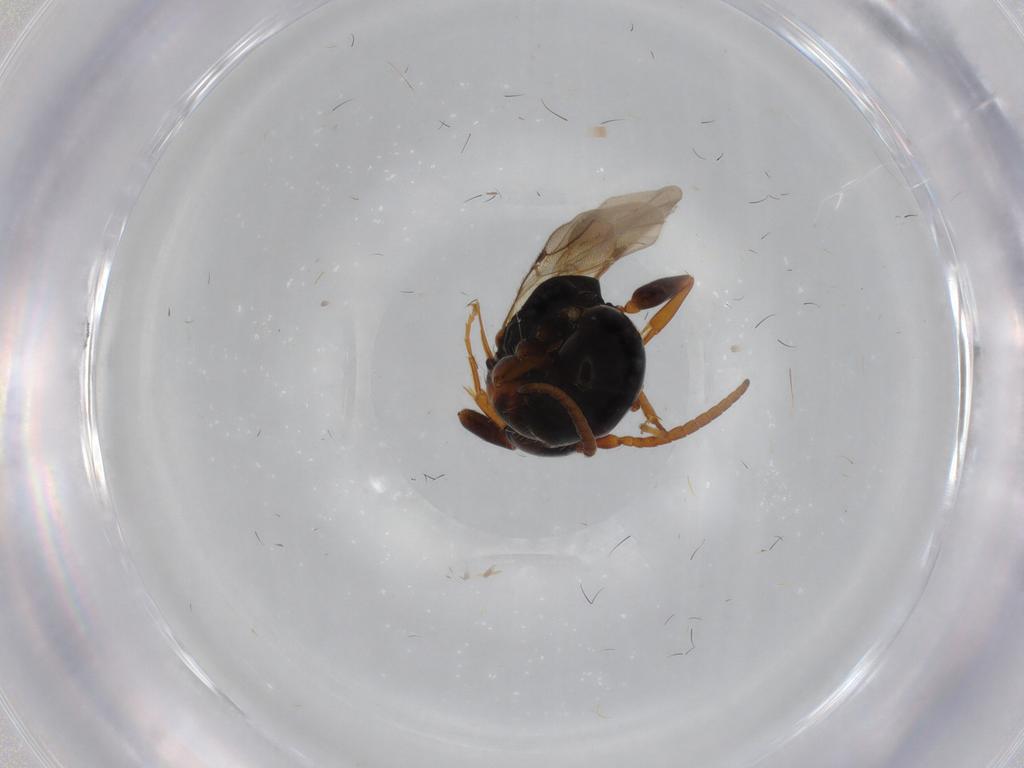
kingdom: Animalia
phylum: Arthropoda
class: Insecta
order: Hymenoptera
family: Bethylidae
